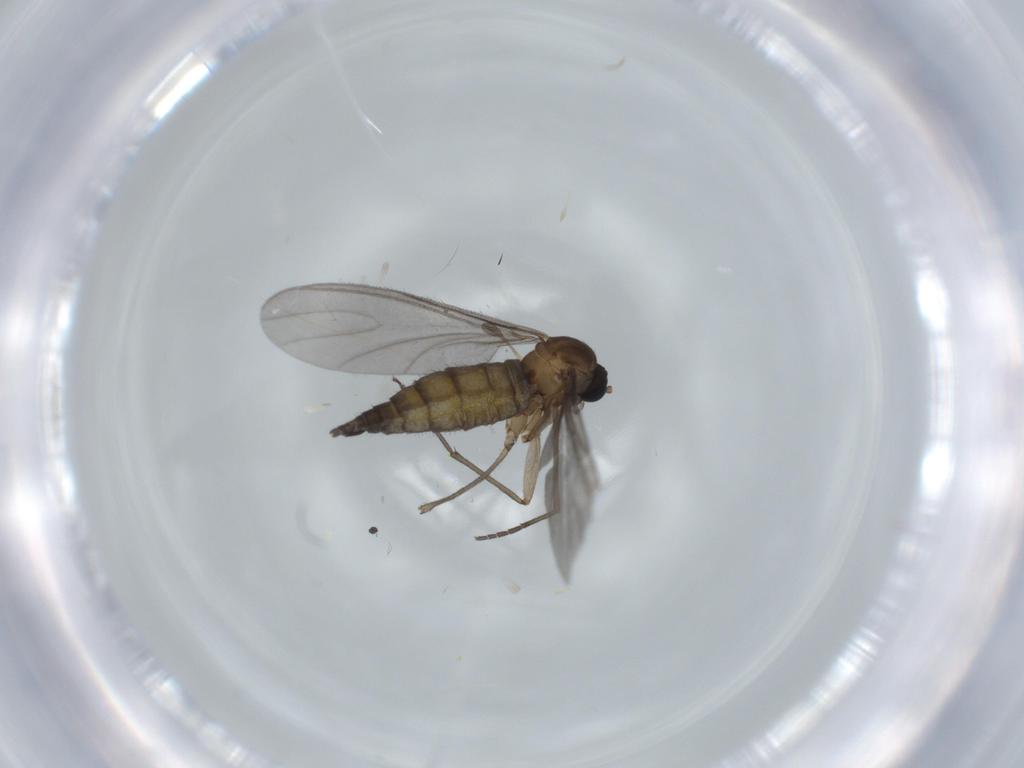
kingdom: Animalia
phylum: Arthropoda
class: Insecta
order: Diptera
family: Sciaridae
